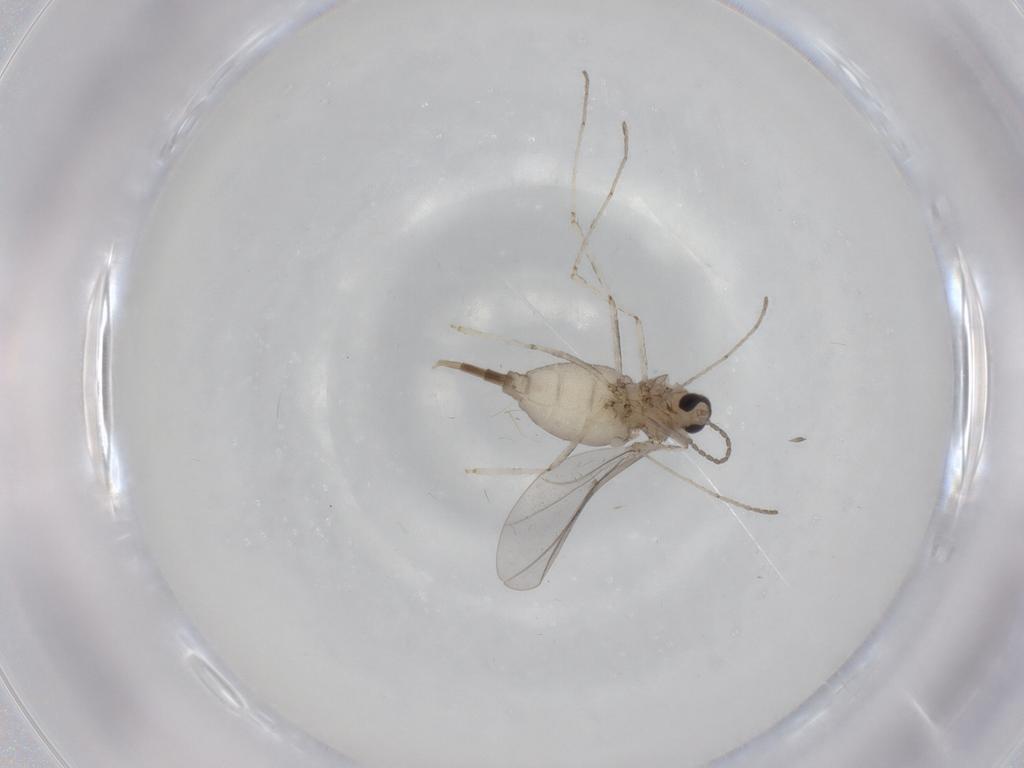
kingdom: Animalia
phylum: Arthropoda
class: Insecta
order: Diptera
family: Cecidomyiidae
